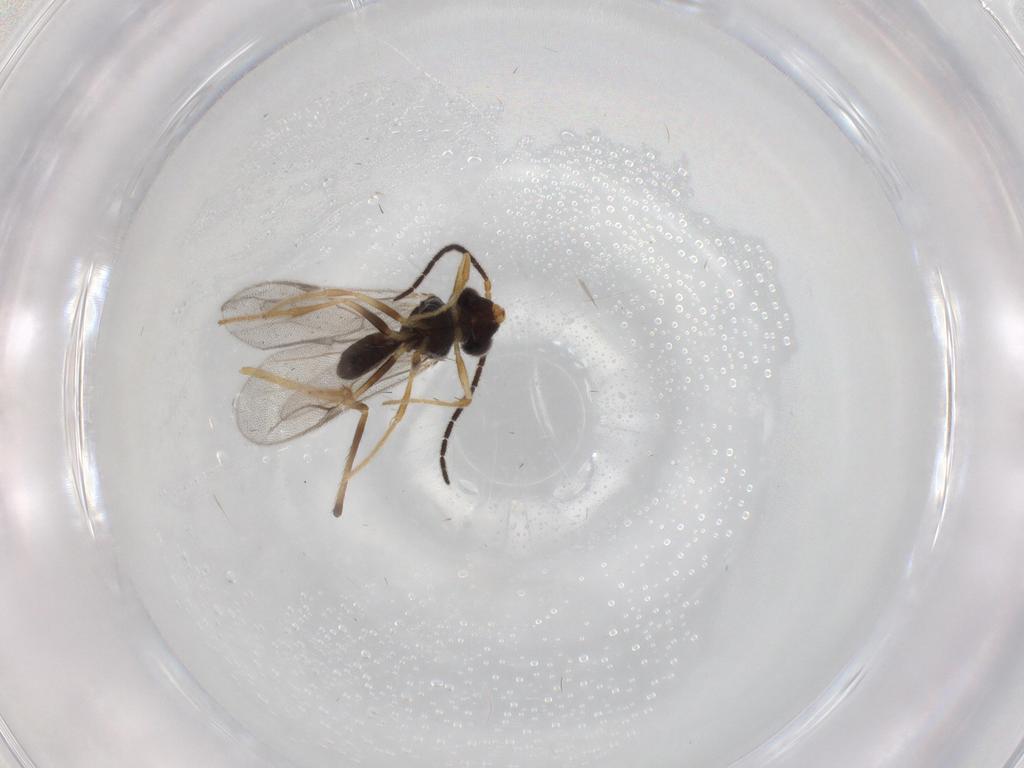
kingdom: Animalia
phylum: Arthropoda
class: Insecta
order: Hymenoptera
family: Dryinidae
